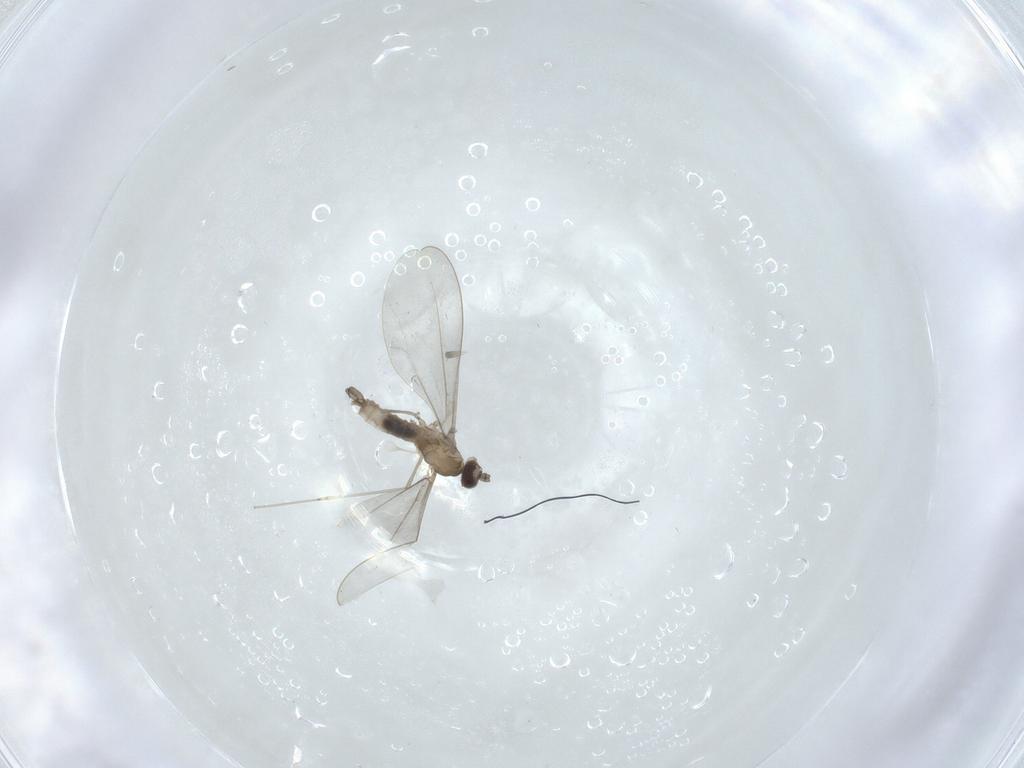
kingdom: Animalia
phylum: Arthropoda
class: Insecta
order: Diptera
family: Cecidomyiidae
